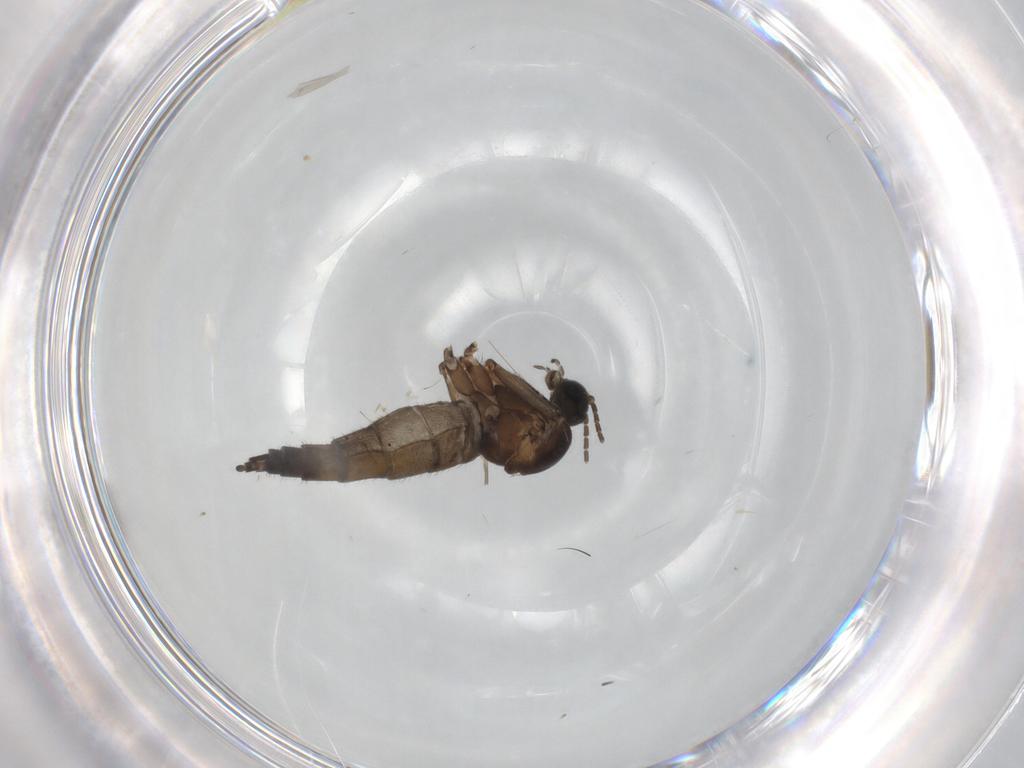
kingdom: Animalia
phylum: Arthropoda
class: Insecta
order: Diptera
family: Sciaridae
